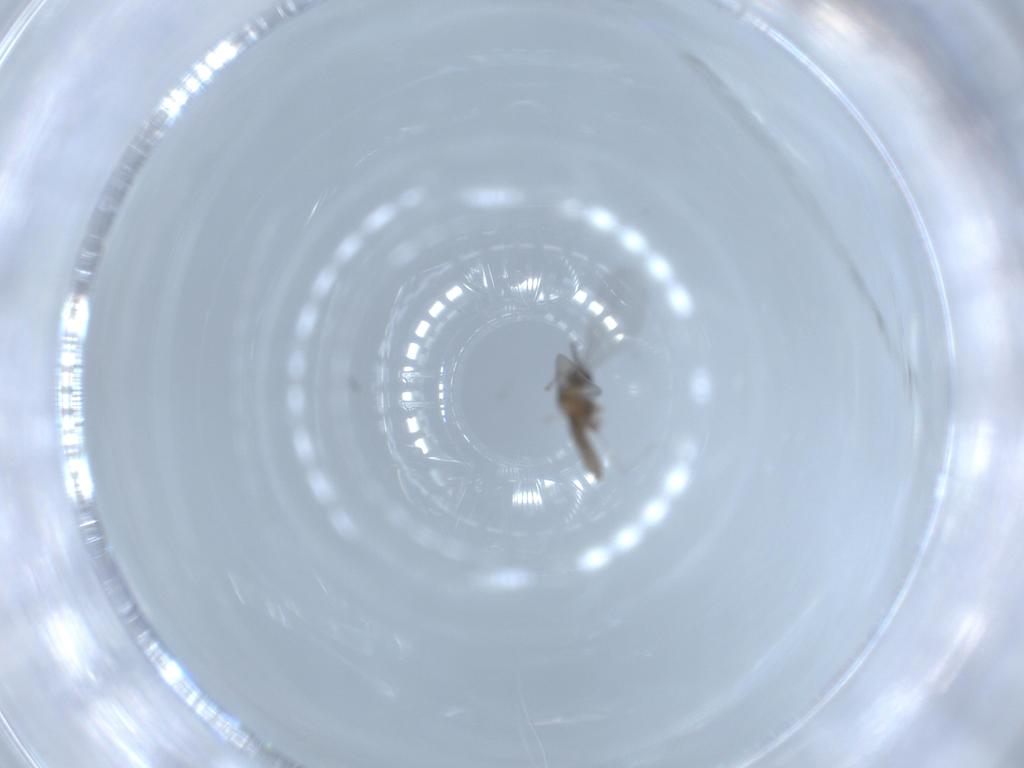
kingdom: Animalia
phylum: Arthropoda
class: Insecta
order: Diptera
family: Cecidomyiidae
